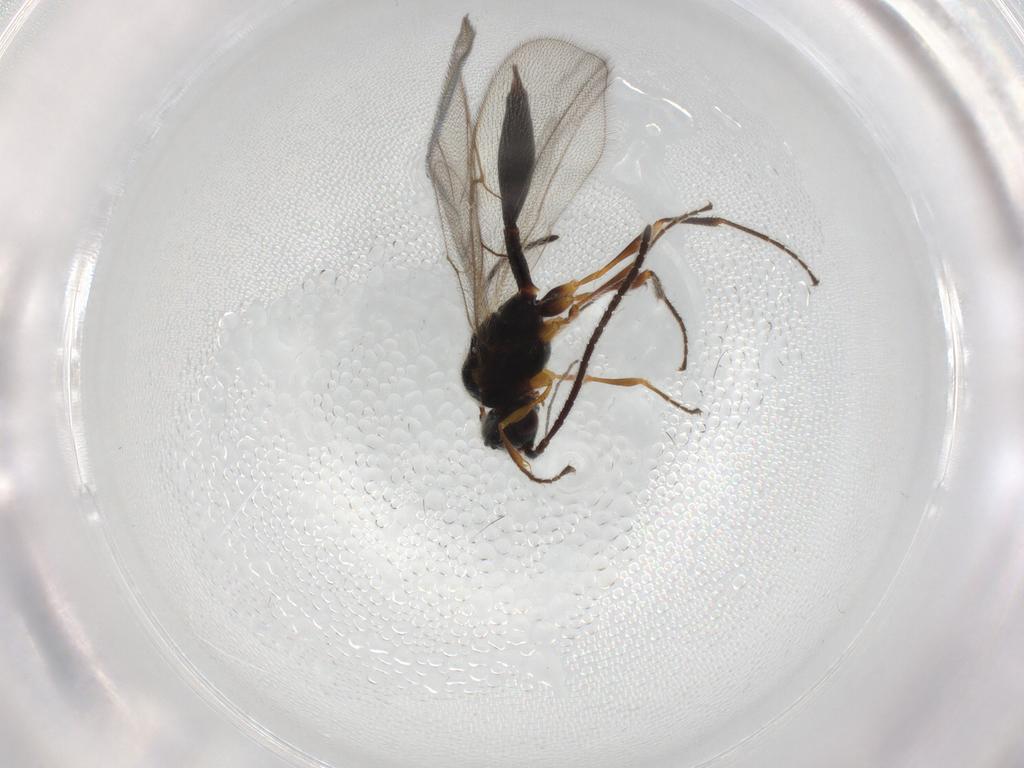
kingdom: Animalia
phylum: Arthropoda
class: Insecta
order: Hymenoptera
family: Diapriidae
